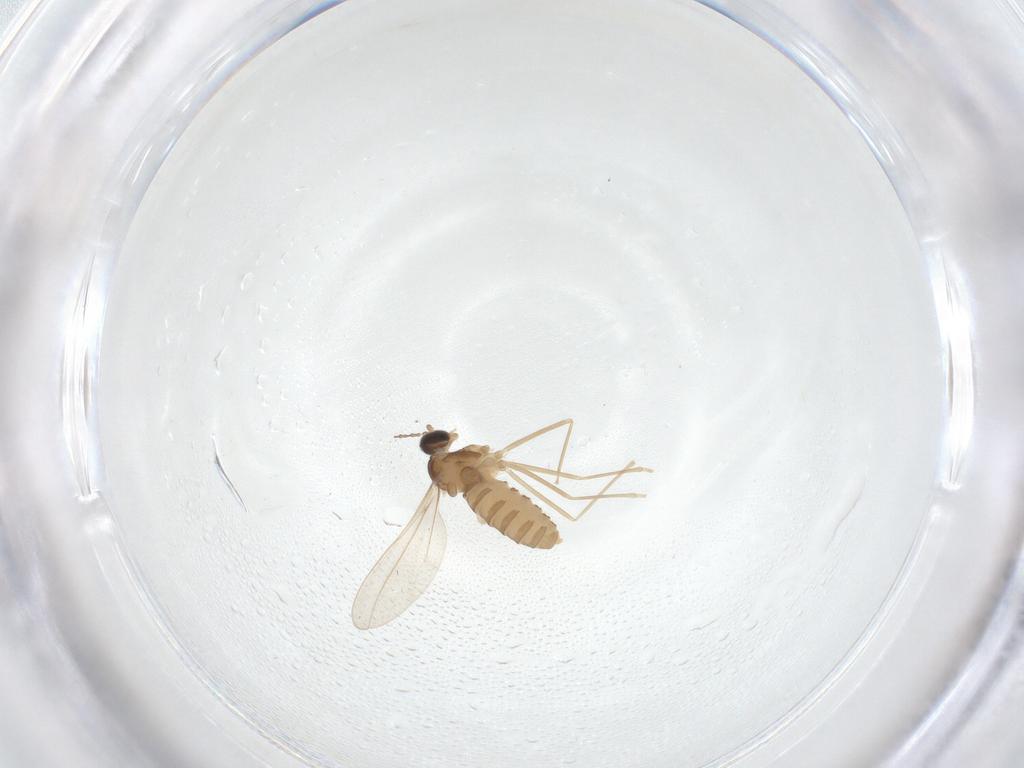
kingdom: Animalia
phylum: Arthropoda
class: Insecta
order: Diptera
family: Cecidomyiidae
